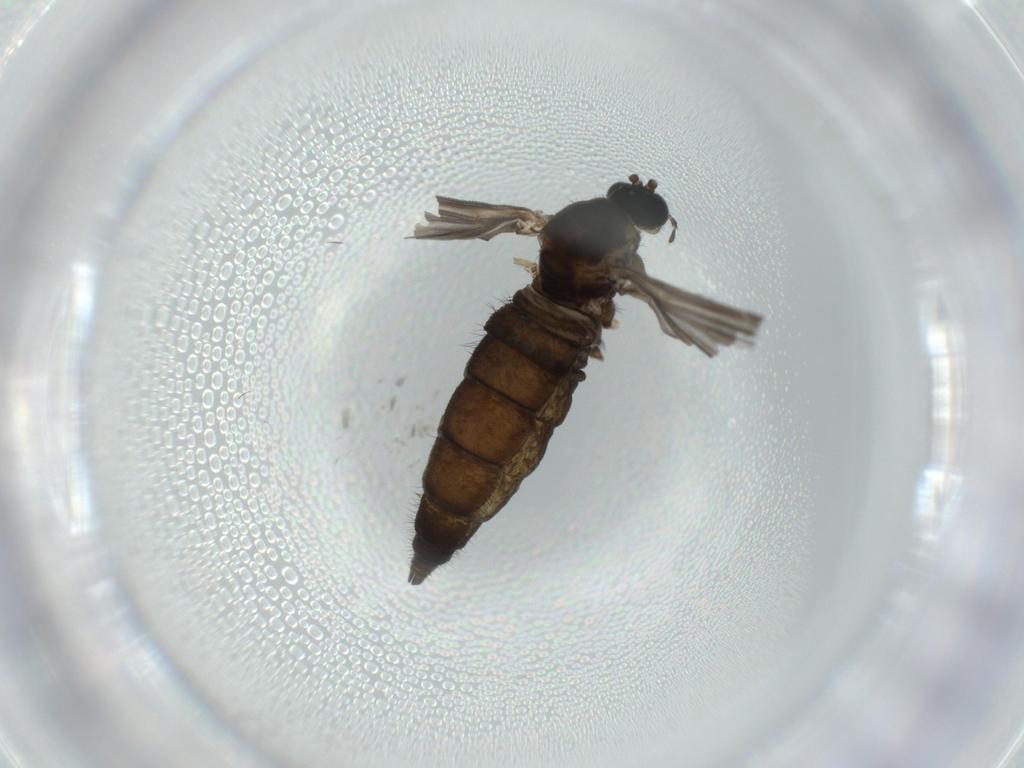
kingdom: Animalia
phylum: Arthropoda
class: Insecta
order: Diptera
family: Sciaridae
